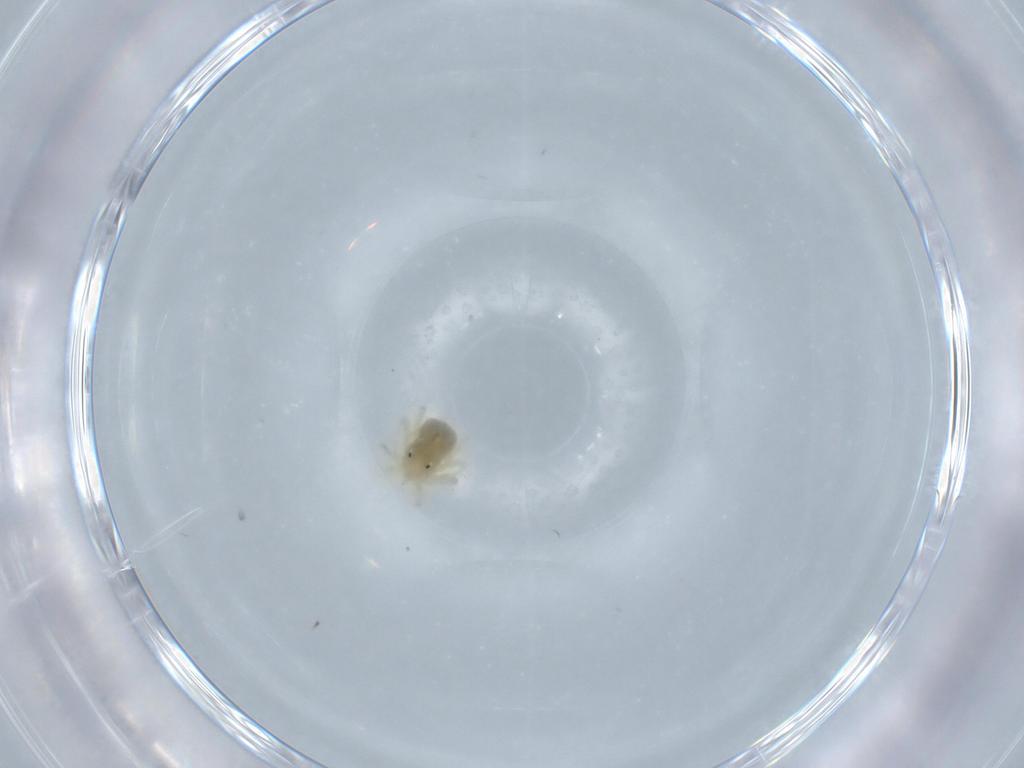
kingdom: Animalia
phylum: Arthropoda
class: Arachnida
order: Trombidiformes
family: Anystidae
